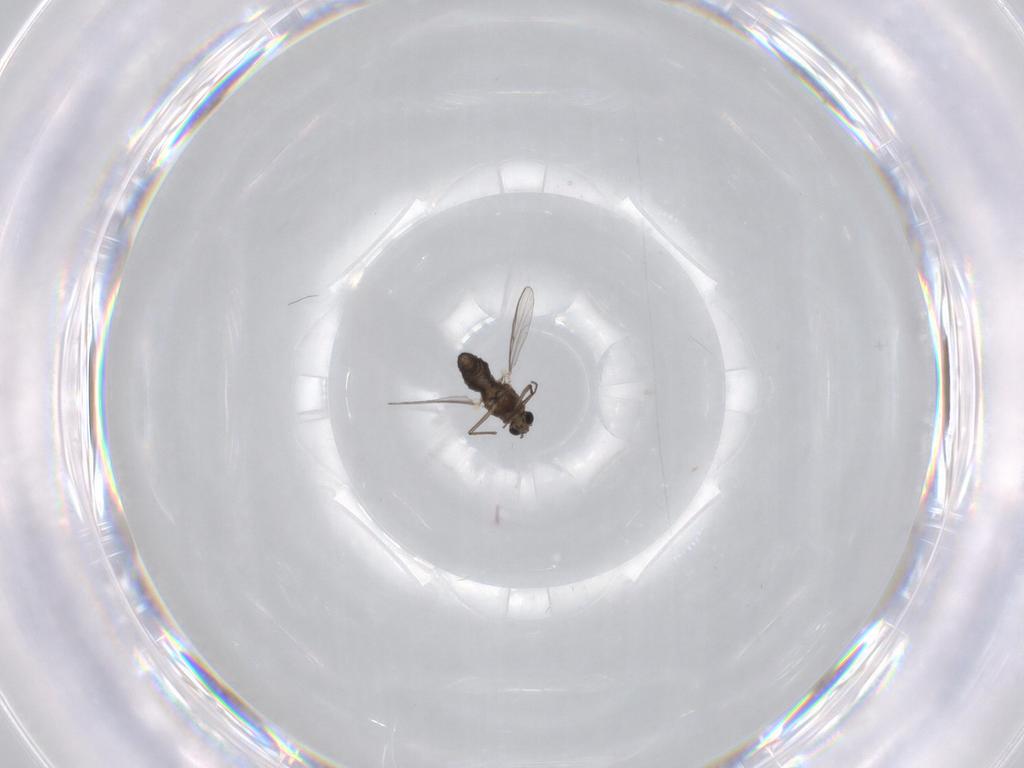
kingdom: Animalia
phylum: Arthropoda
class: Insecta
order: Diptera
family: Chironomidae
